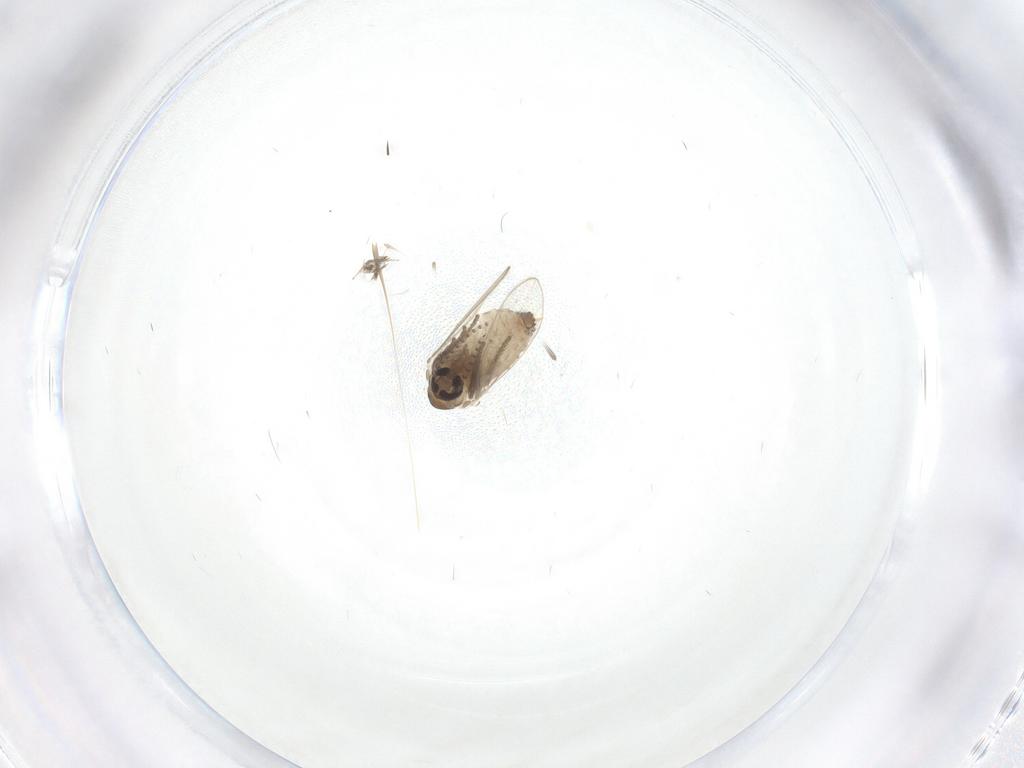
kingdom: Animalia
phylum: Arthropoda
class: Insecta
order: Diptera
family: Psychodidae
